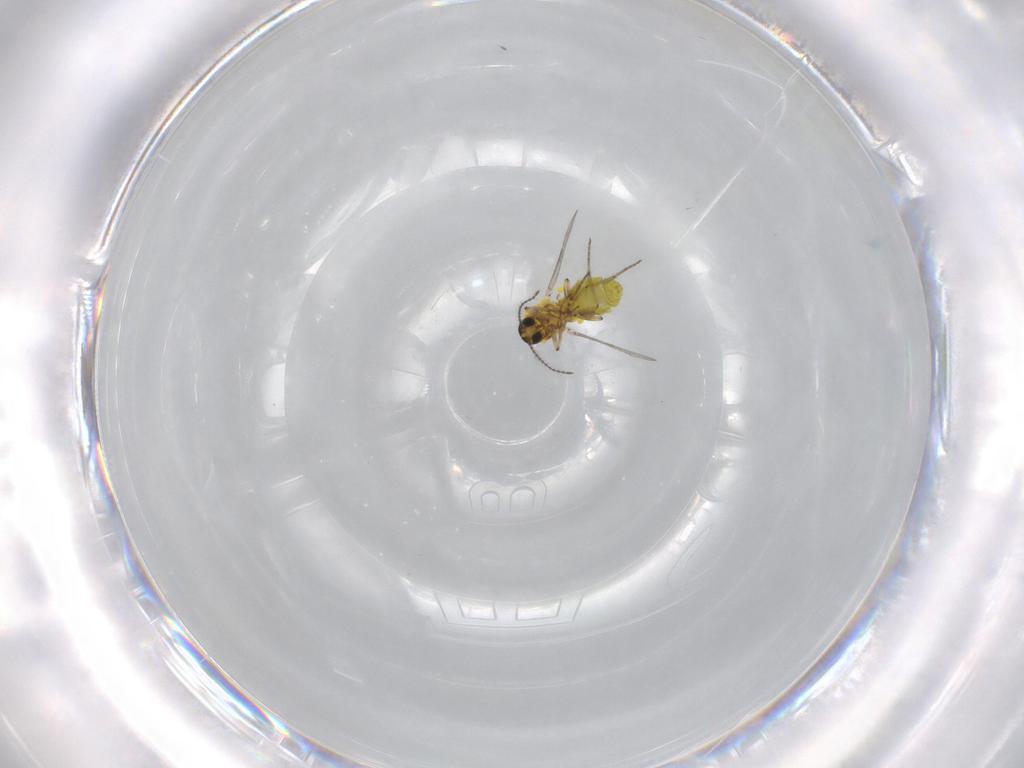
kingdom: Animalia
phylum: Arthropoda
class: Insecta
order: Diptera
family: Ceratopogonidae
